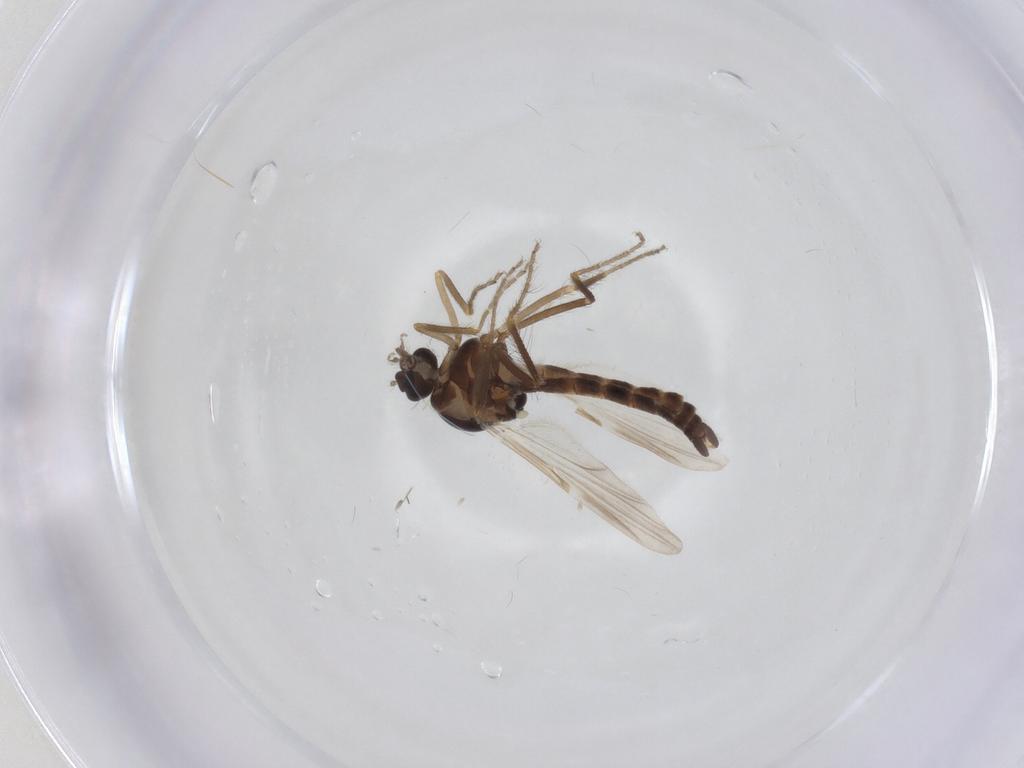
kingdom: Animalia
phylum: Arthropoda
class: Insecta
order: Diptera
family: Ceratopogonidae
